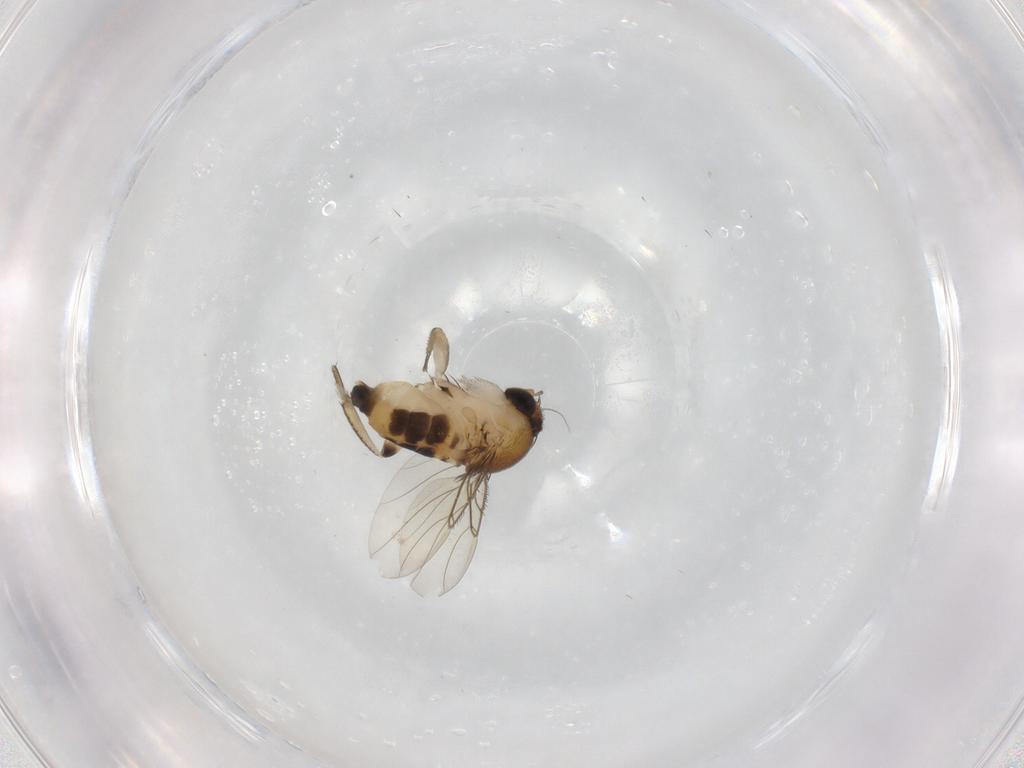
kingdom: Animalia
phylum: Arthropoda
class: Insecta
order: Diptera
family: Phoridae
